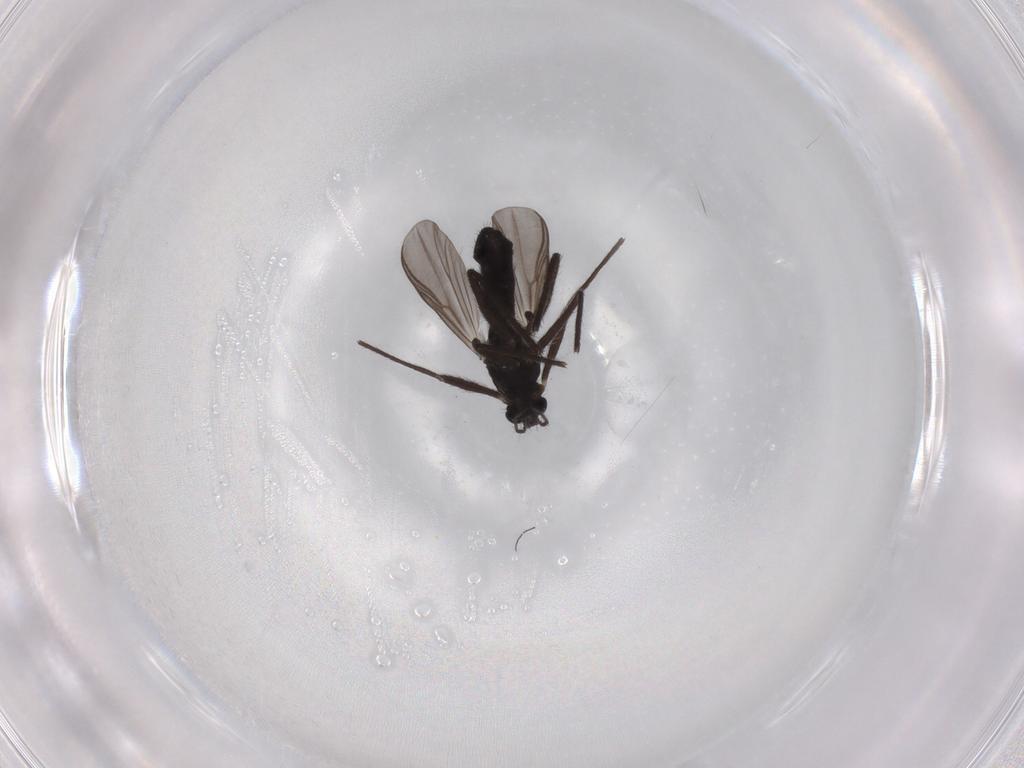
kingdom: Animalia
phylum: Arthropoda
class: Insecta
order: Diptera
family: Chironomidae
